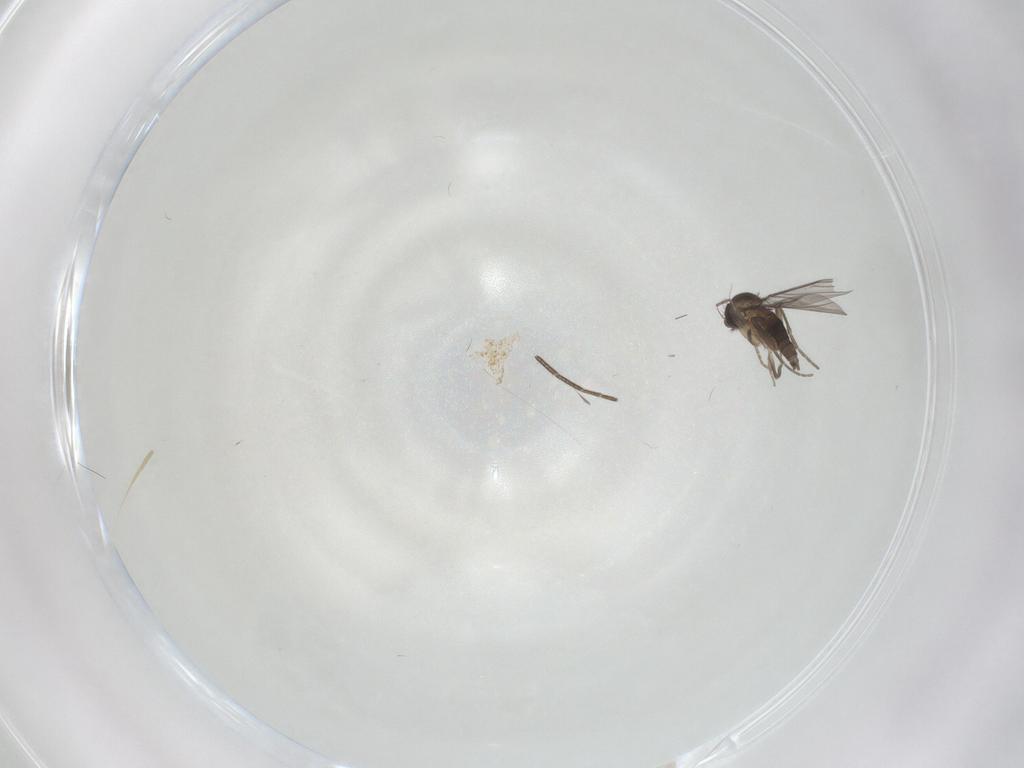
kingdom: Animalia
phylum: Arthropoda
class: Insecta
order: Diptera
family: Mycetophilidae
